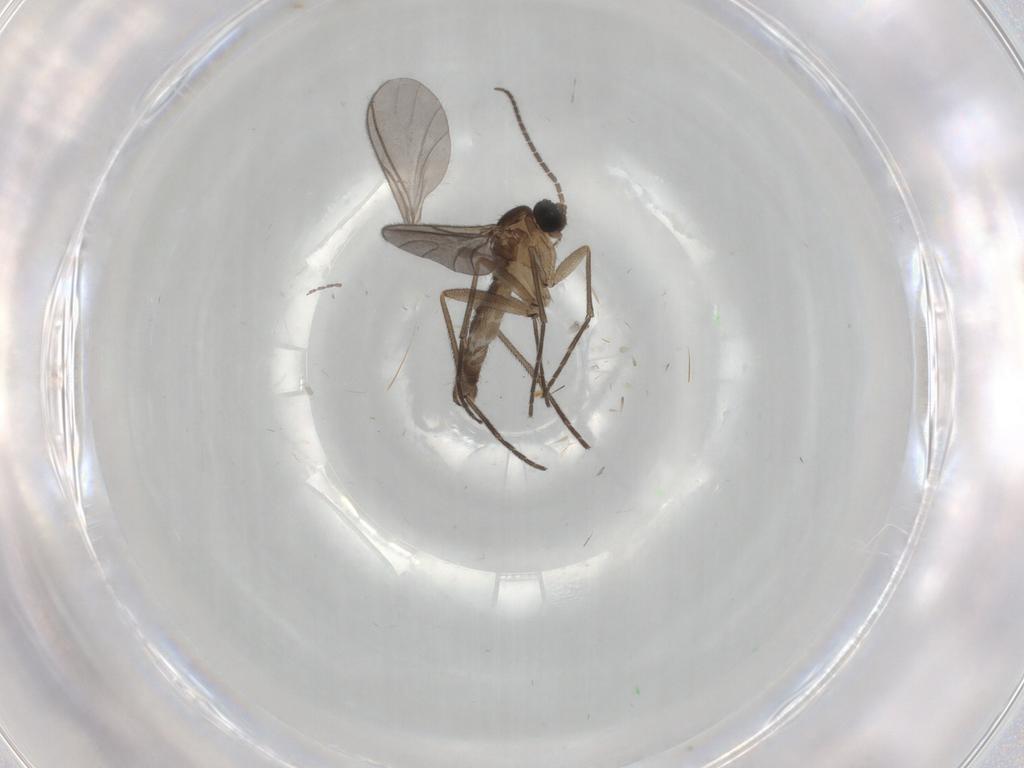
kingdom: Animalia
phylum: Arthropoda
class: Insecta
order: Diptera
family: Sciaridae
